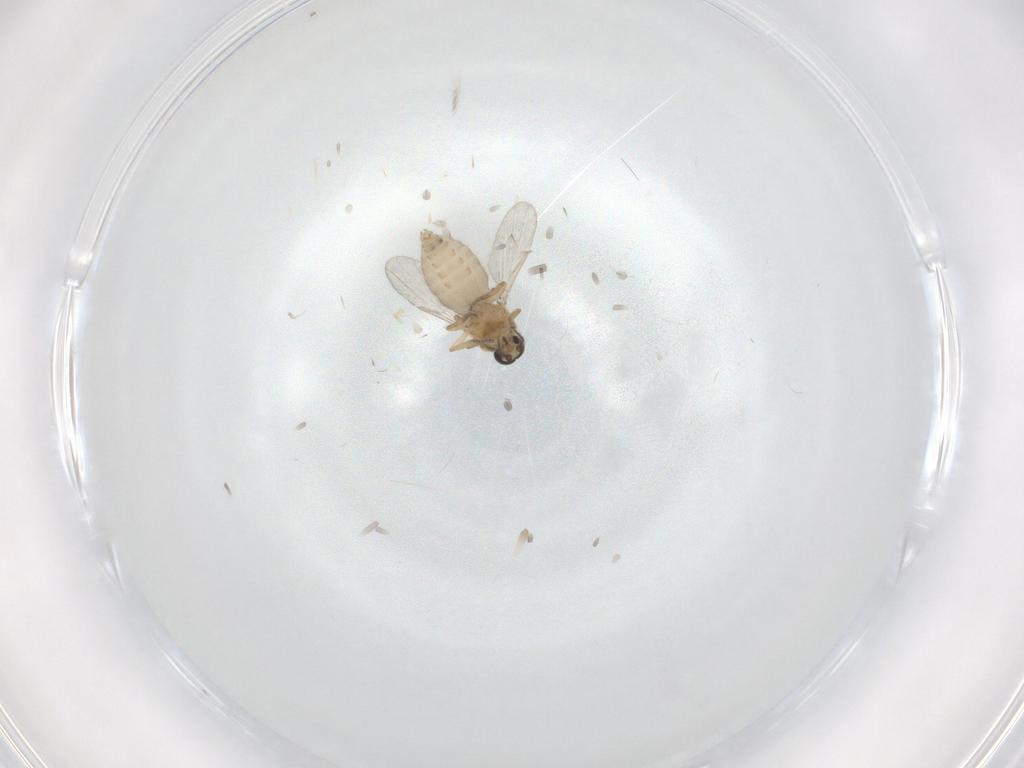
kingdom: Animalia
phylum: Arthropoda
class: Insecta
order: Diptera
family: Ceratopogonidae
